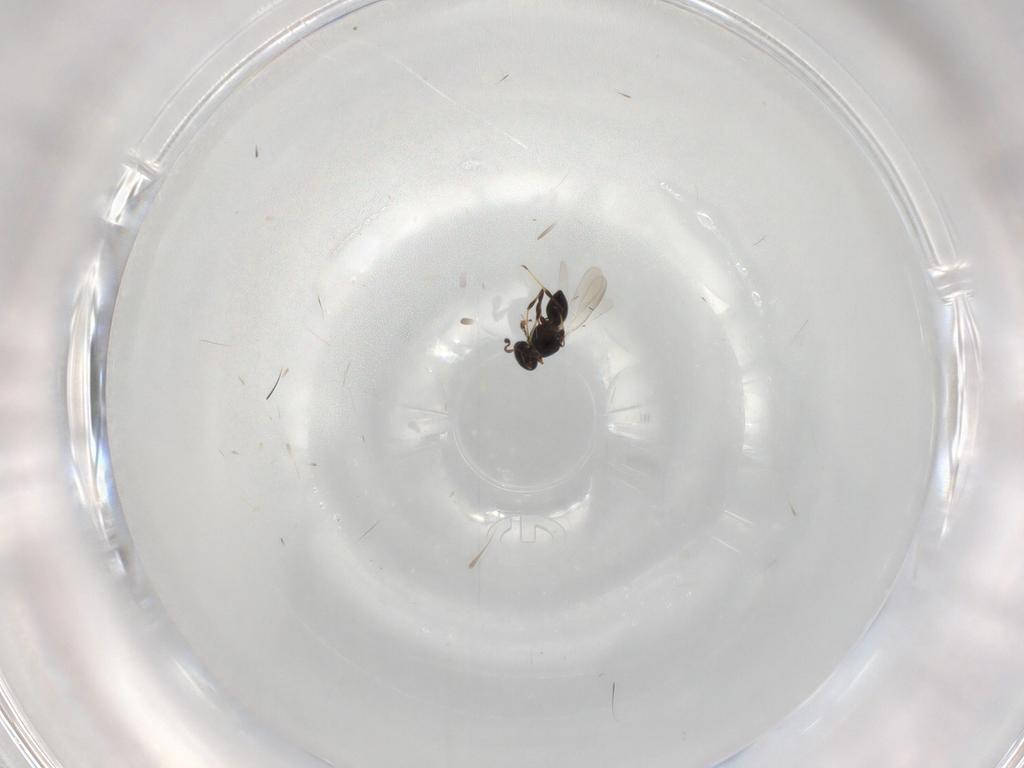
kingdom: Animalia
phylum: Arthropoda
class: Insecta
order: Hymenoptera
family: Platygastridae
